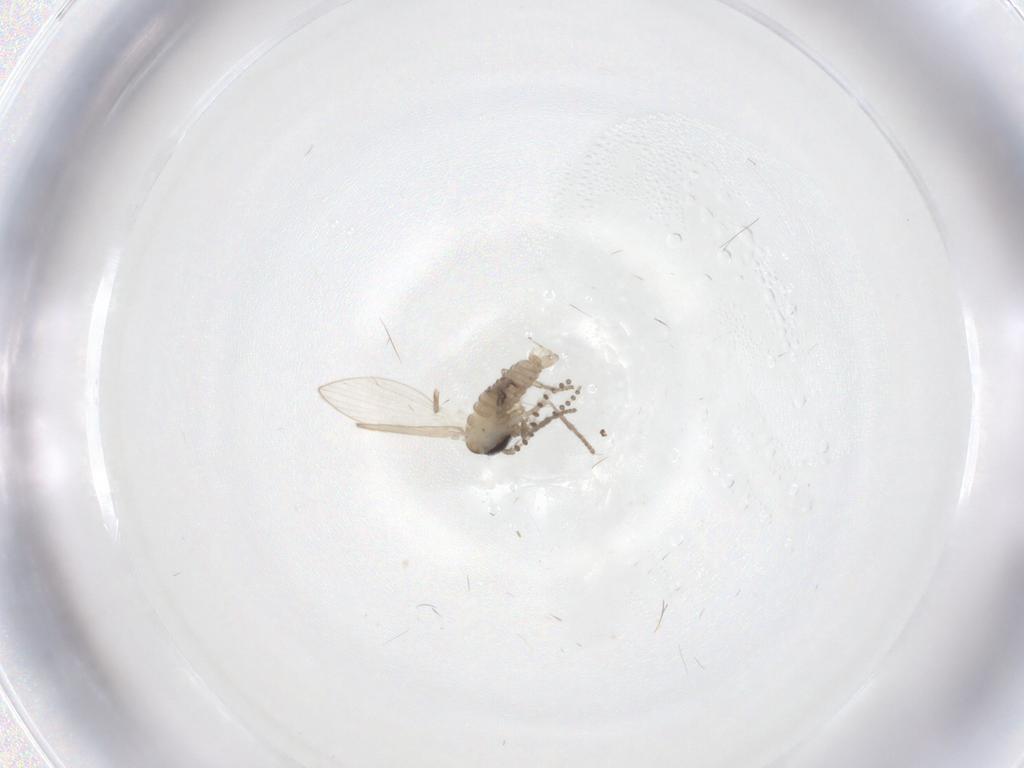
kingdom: Animalia
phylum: Arthropoda
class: Insecta
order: Diptera
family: Psychodidae
